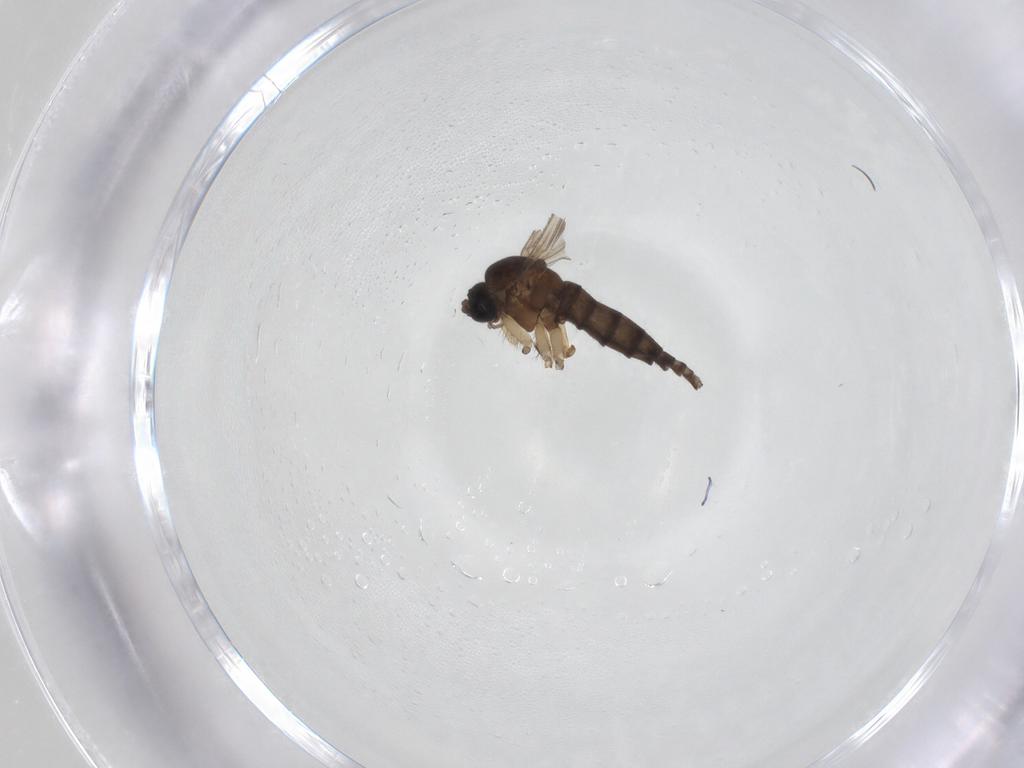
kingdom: Animalia
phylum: Arthropoda
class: Insecta
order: Diptera
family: Sciaridae
